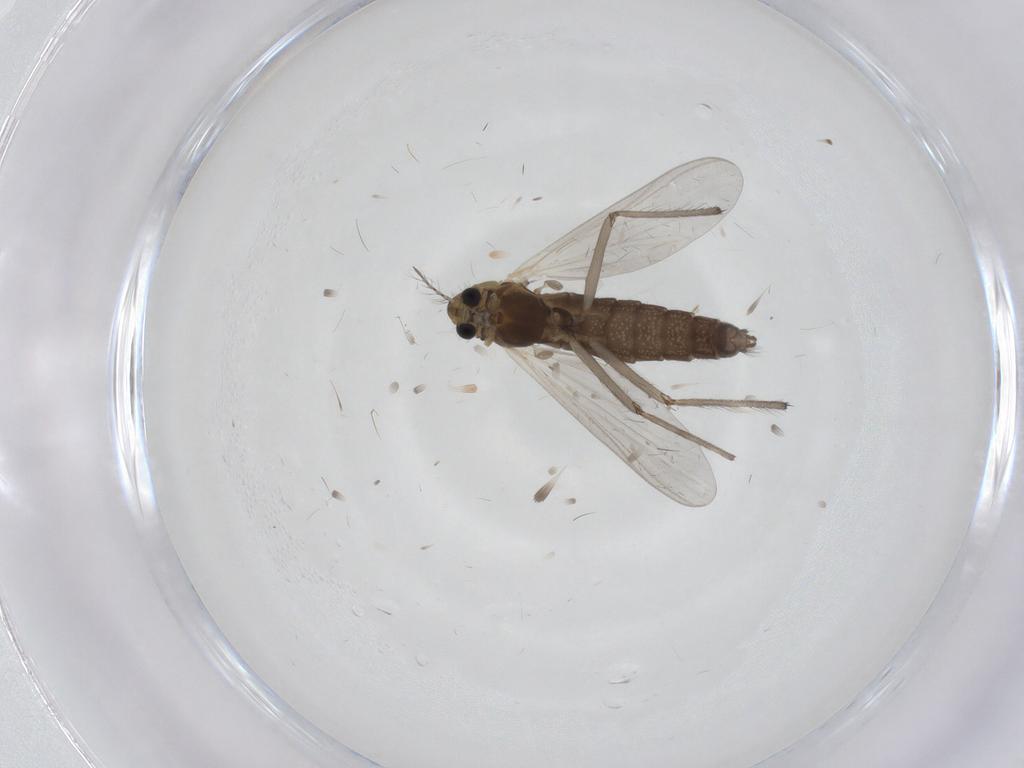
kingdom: Animalia
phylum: Arthropoda
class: Insecta
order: Diptera
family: Chironomidae
